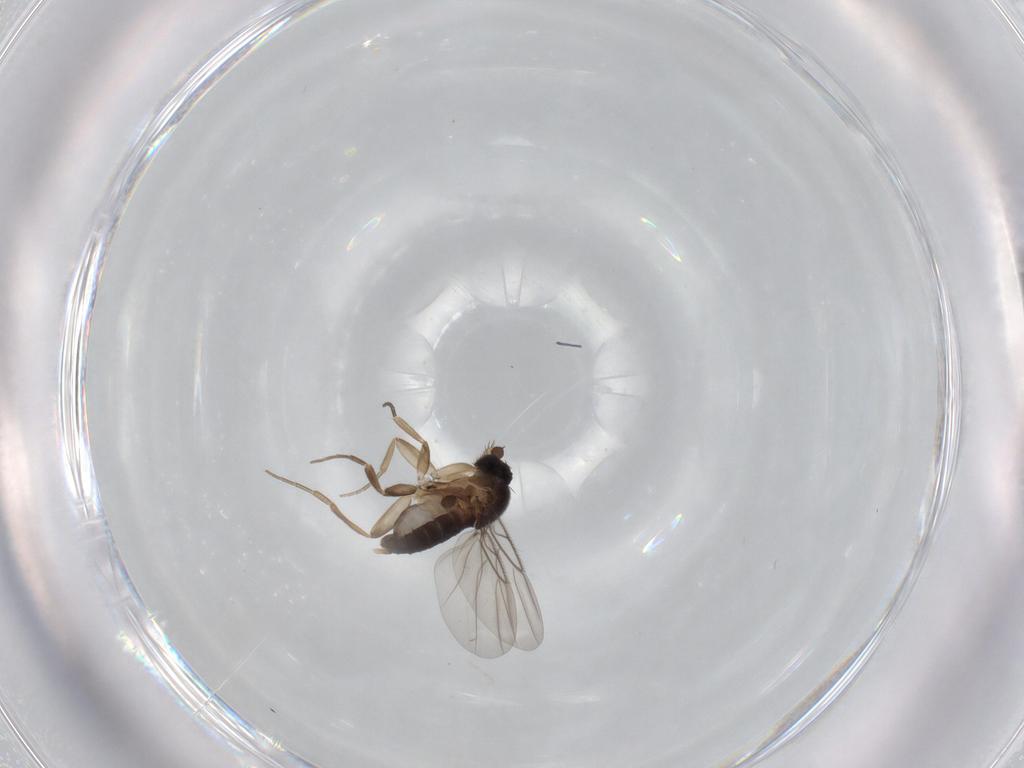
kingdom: Animalia
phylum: Arthropoda
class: Insecta
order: Diptera
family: Phoridae
